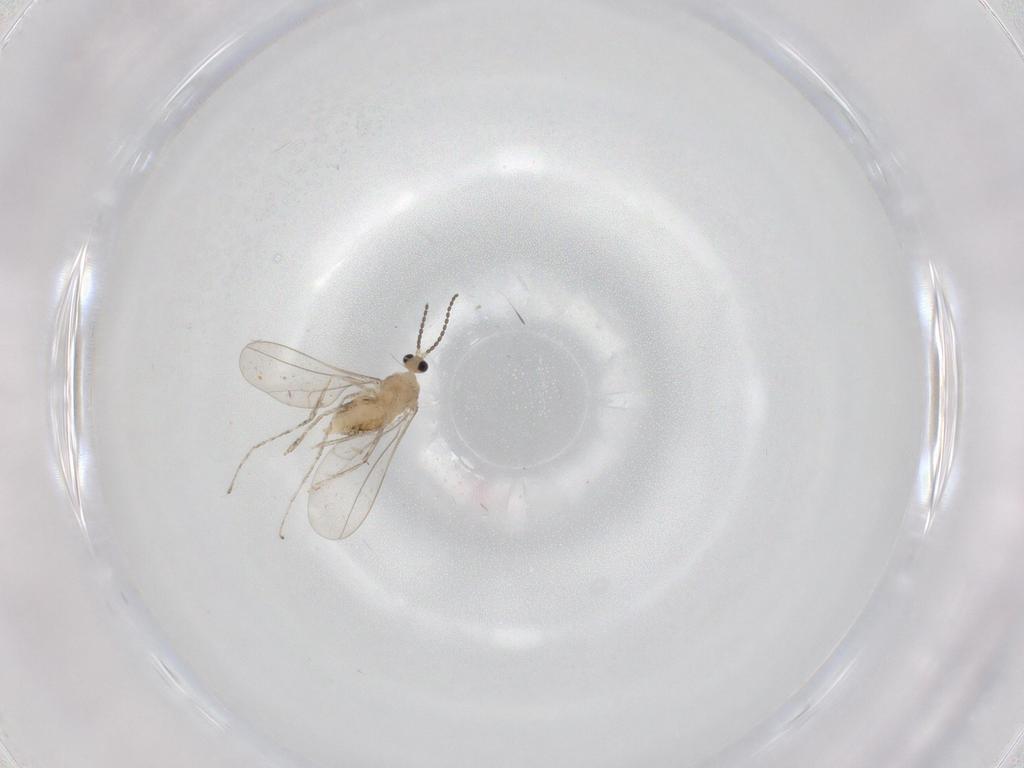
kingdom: Animalia
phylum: Arthropoda
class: Insecta
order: Diptera
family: Cecidomyiidae
